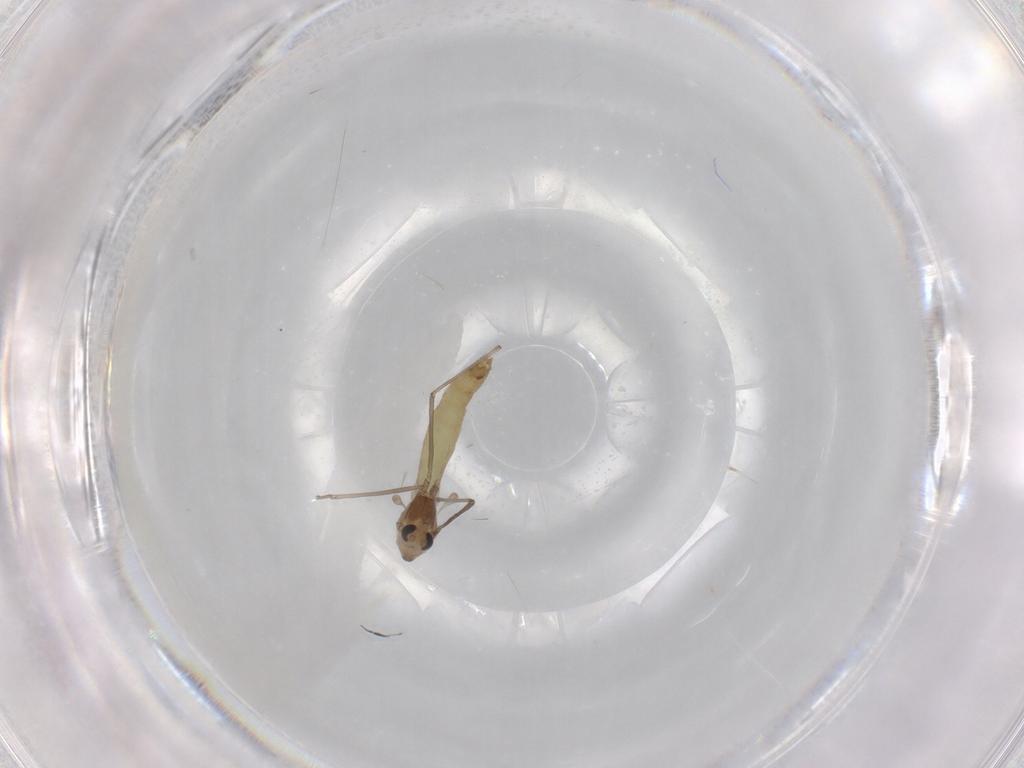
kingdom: Animalia
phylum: Arthropoda
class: Insecta
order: Diptera
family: Chironomidae
